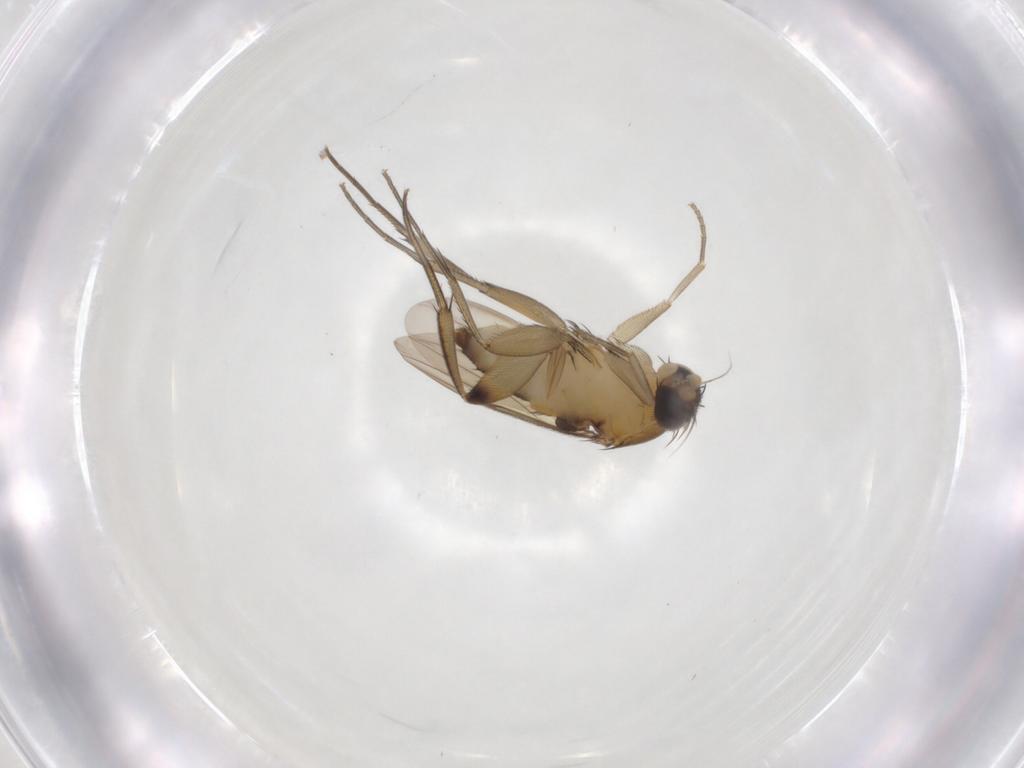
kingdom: Animalia
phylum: Arthropoda
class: Insecta
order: Diptera
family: Phoridae
